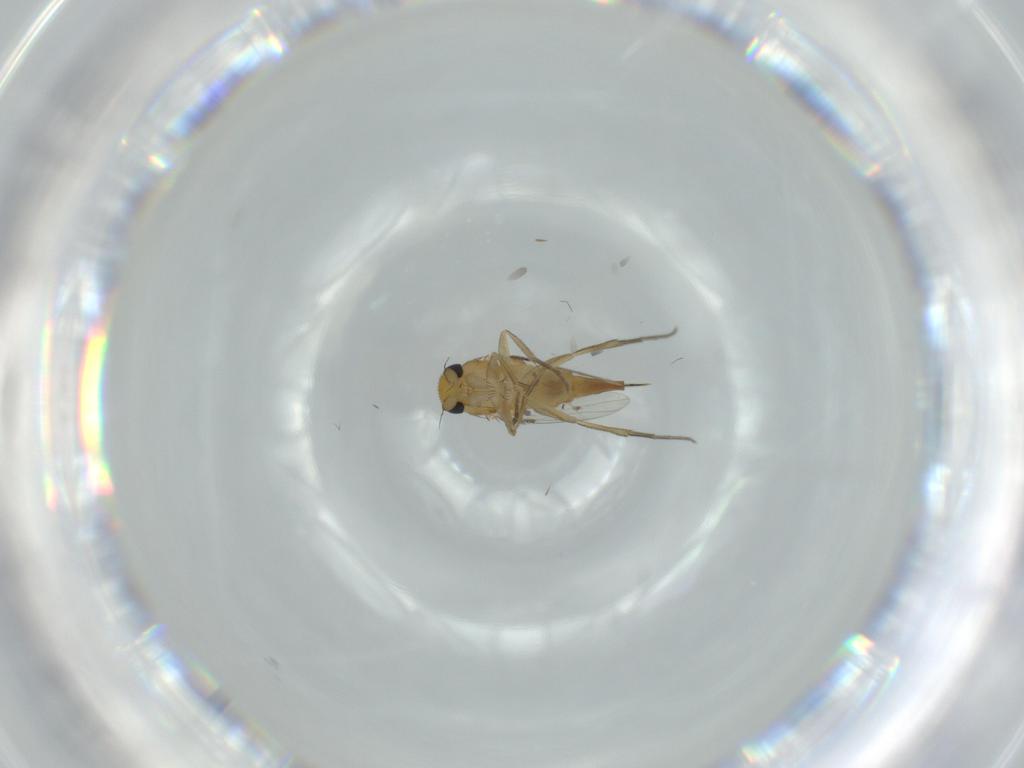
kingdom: Animalia
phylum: Arthropoda
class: Insecta
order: Diptera
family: Phoridae
